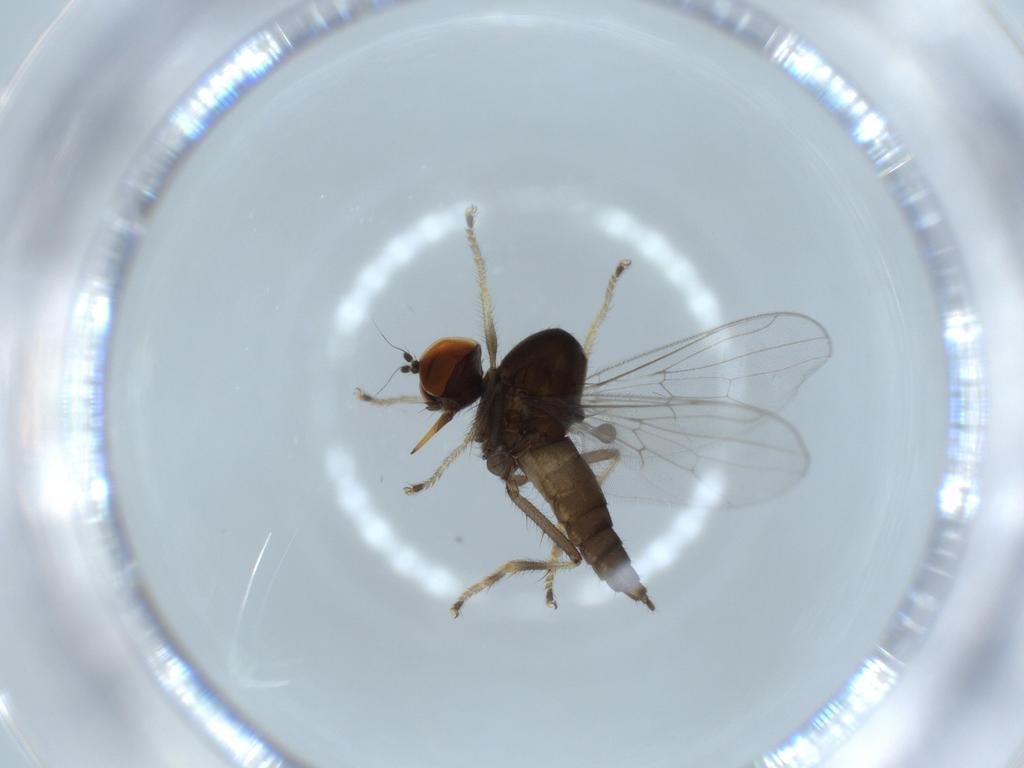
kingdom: Animalia
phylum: Arthropoda
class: Insecta
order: Diptera
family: Hybotidae
